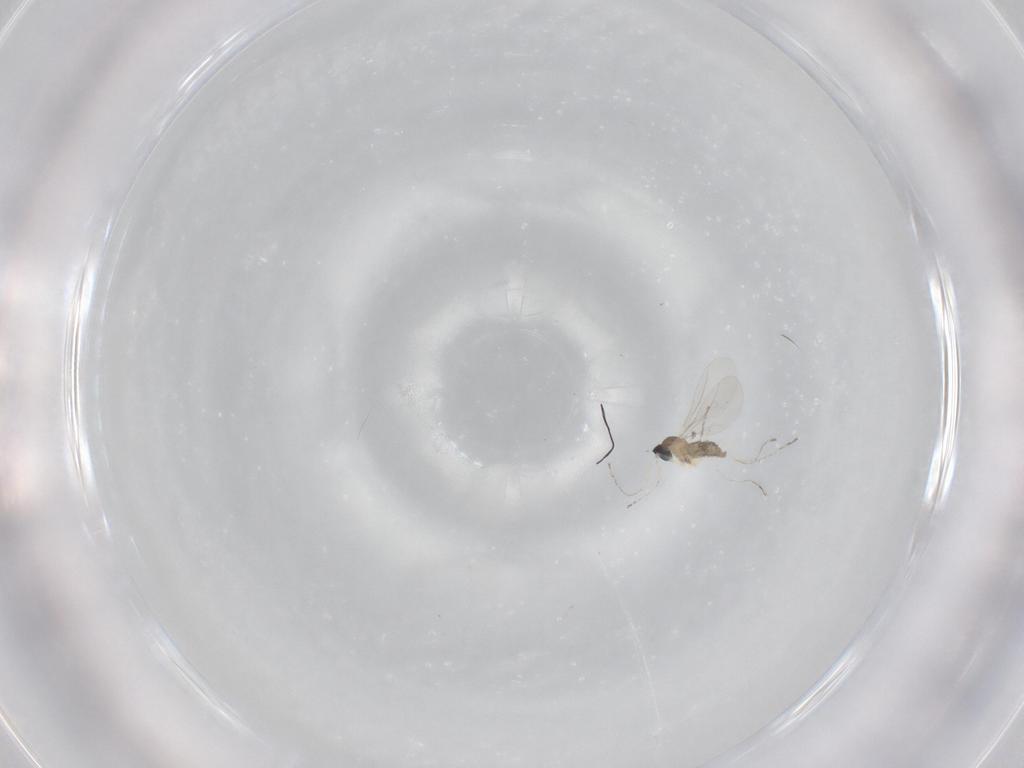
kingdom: Animalia
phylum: Arthropoda
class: Insecta
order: Diptera
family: Cecidomyiidae
